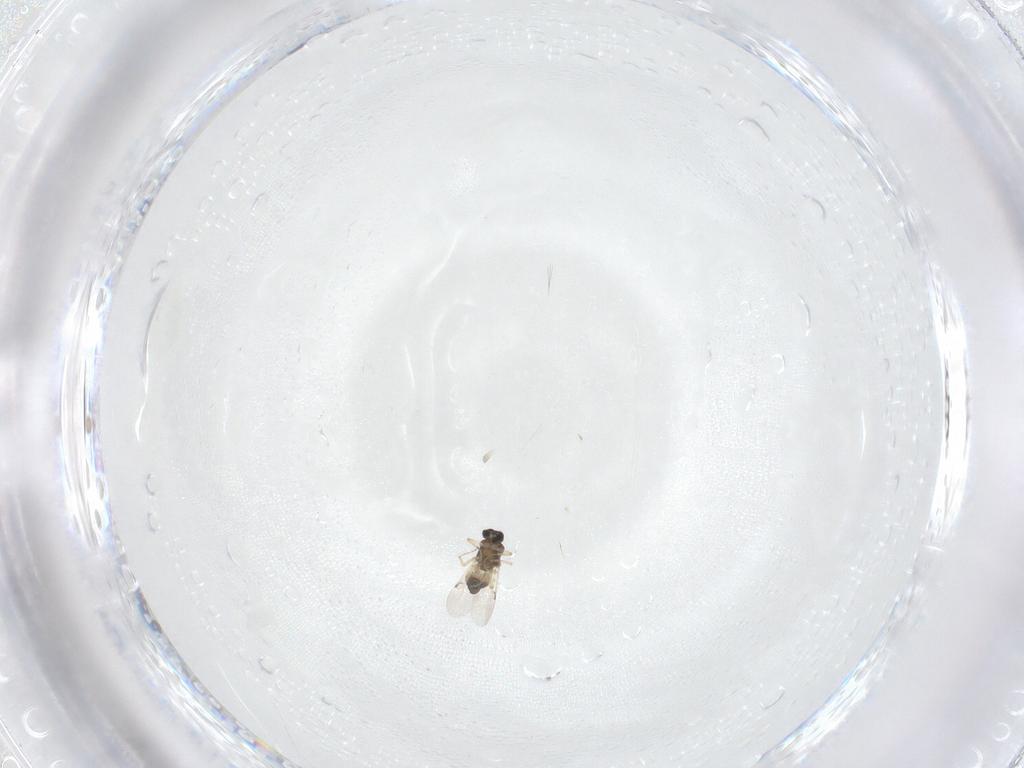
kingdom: Animalia
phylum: Arthropoda
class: Insecta
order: Diptera
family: Ceratopogonidae
